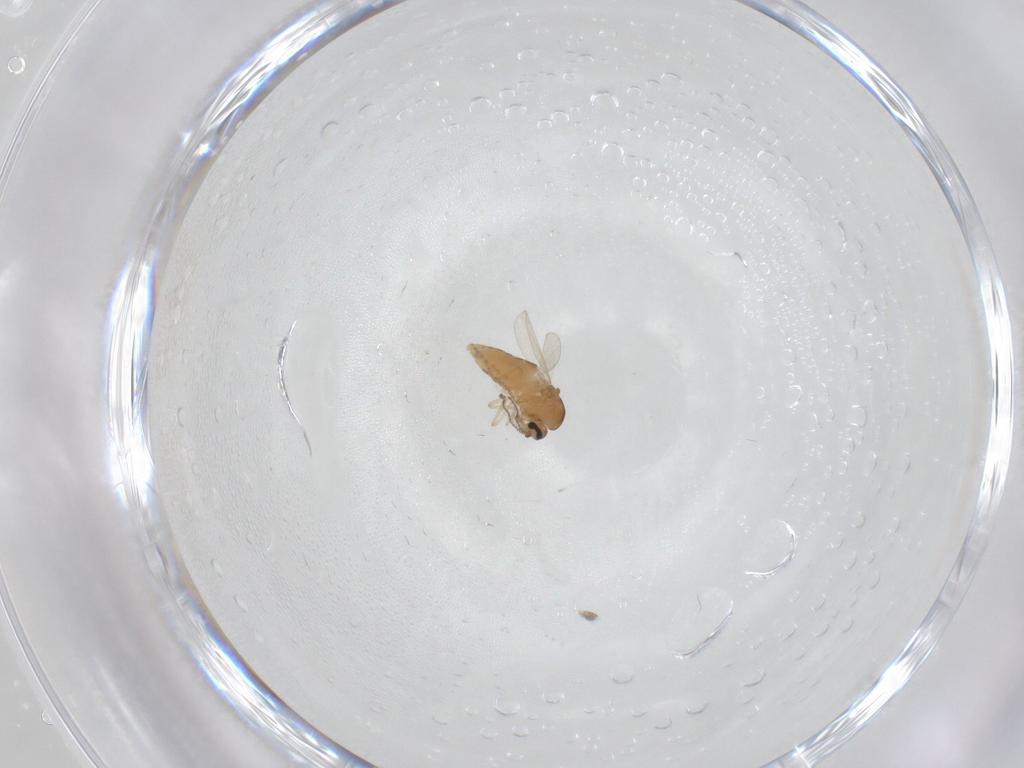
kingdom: Animalia
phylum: Arthropoda
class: Insecta
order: Diptera
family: Ceratopogonidae
